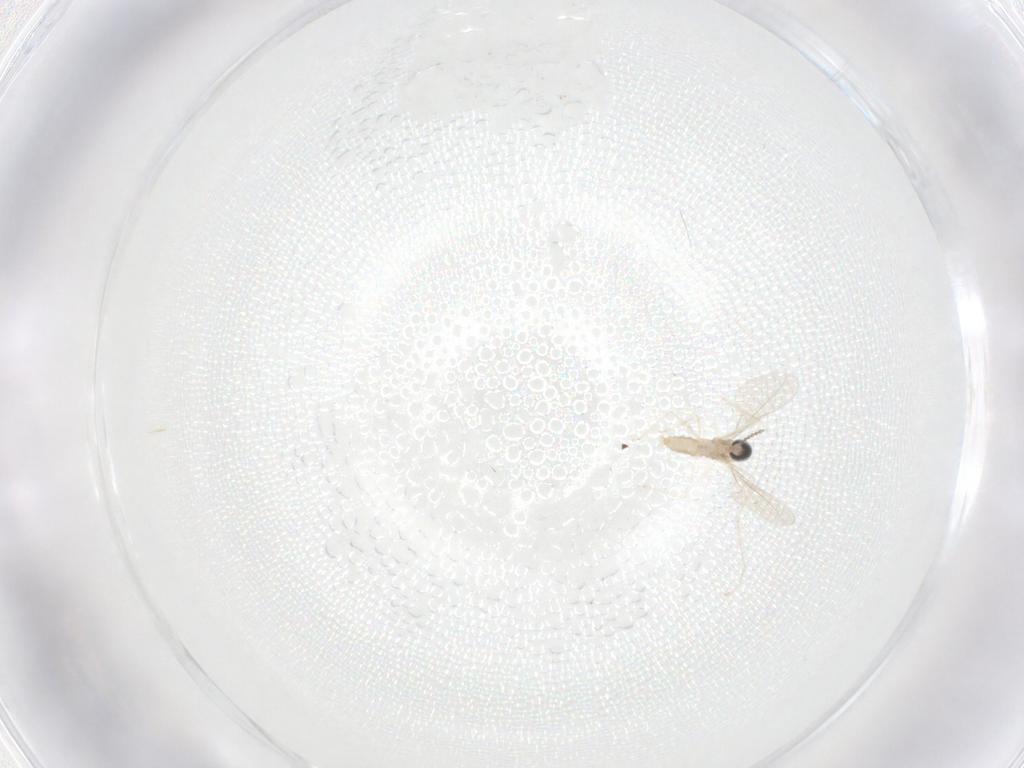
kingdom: Animalia
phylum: Arthropoda
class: Insecta
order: Diptera
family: Cecidomyiidae
